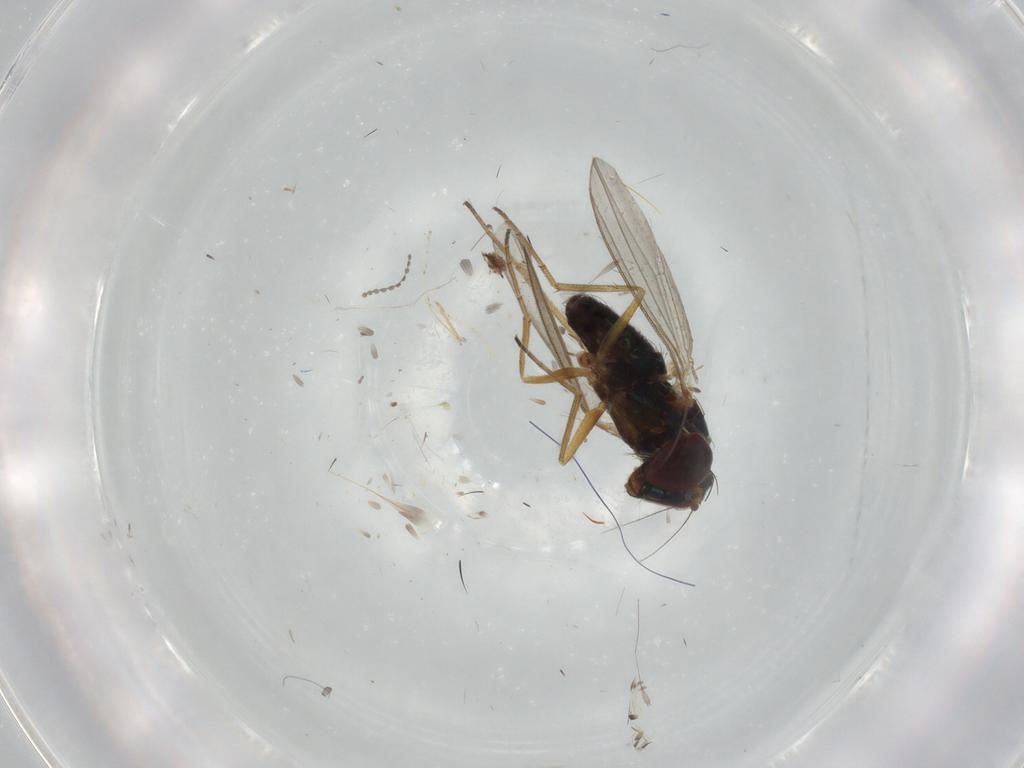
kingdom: Animalia
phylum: Arthropoda
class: Insecta
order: Diptera
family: Dolichopodidae
